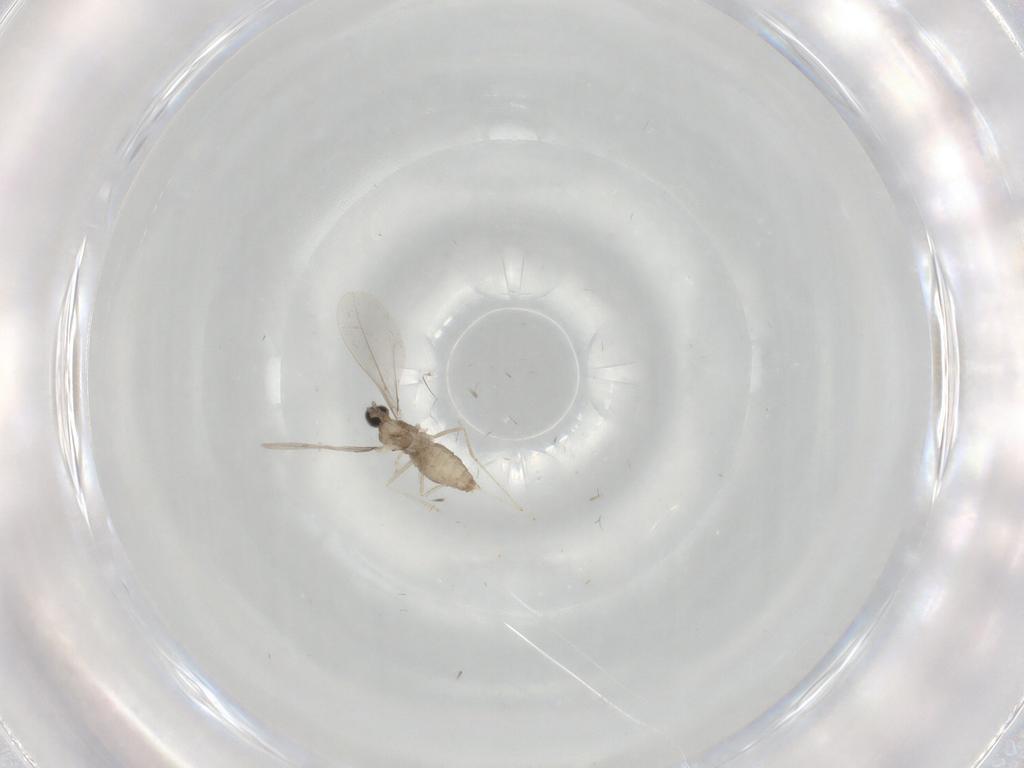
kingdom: Animalia
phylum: Arthropoda
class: Insecta
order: Diptera
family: Cecidomyiidae
